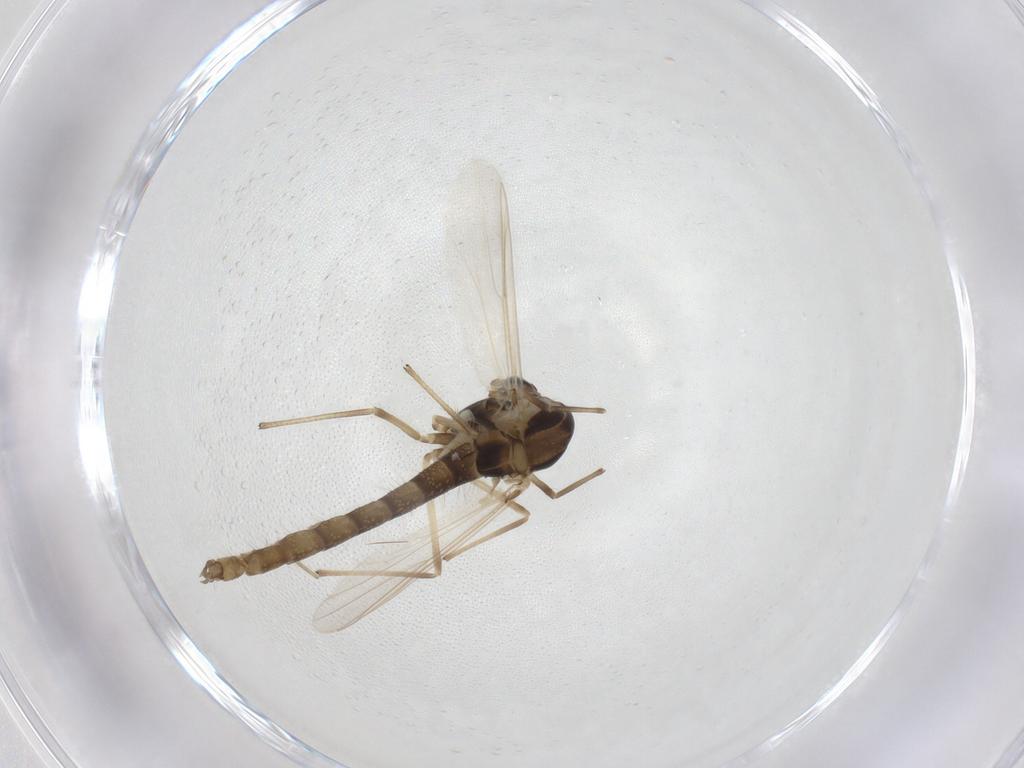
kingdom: Animalia
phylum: Arthropoda
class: Insecta
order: Diptera
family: Chironomidae
